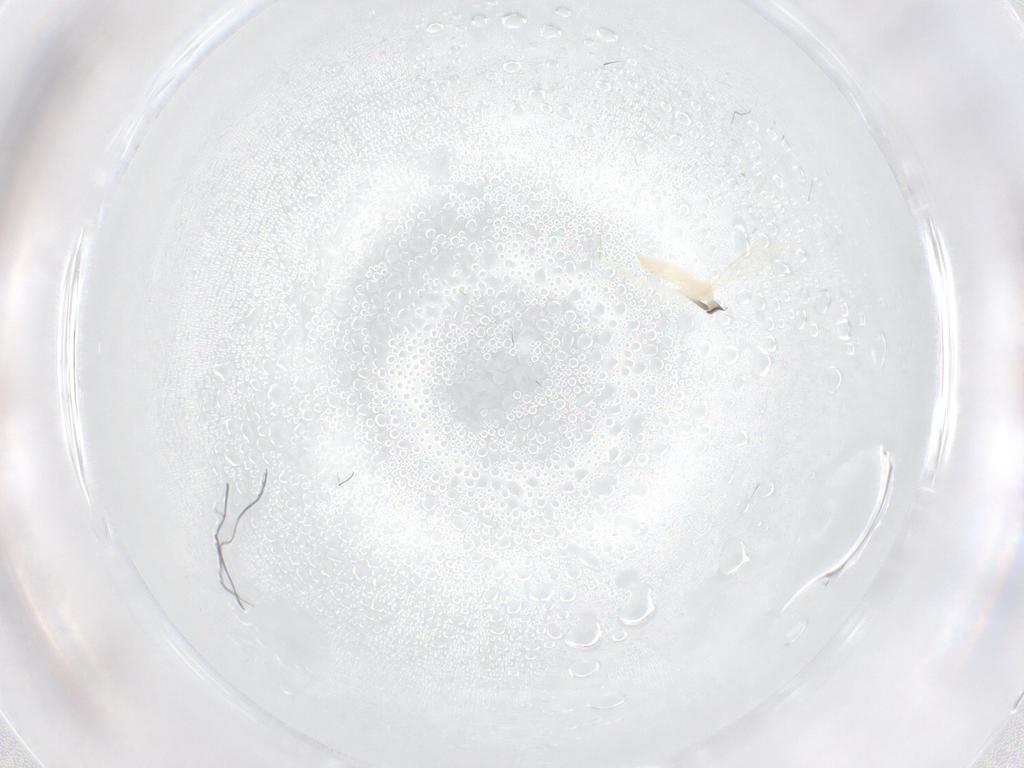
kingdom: Animalia
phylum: Arthropoda
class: Insecta
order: Diptera
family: Cecidomyiidae
